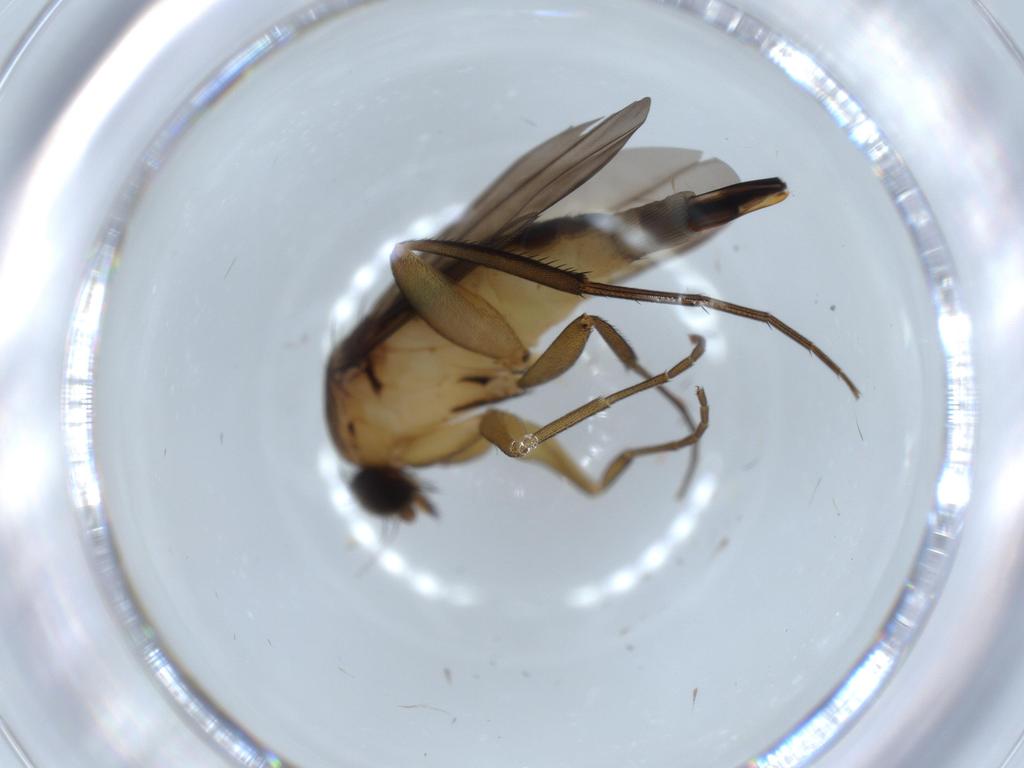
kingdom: Animalia
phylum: Arthropoda
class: Insecta
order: Diptera
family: Phoridae
